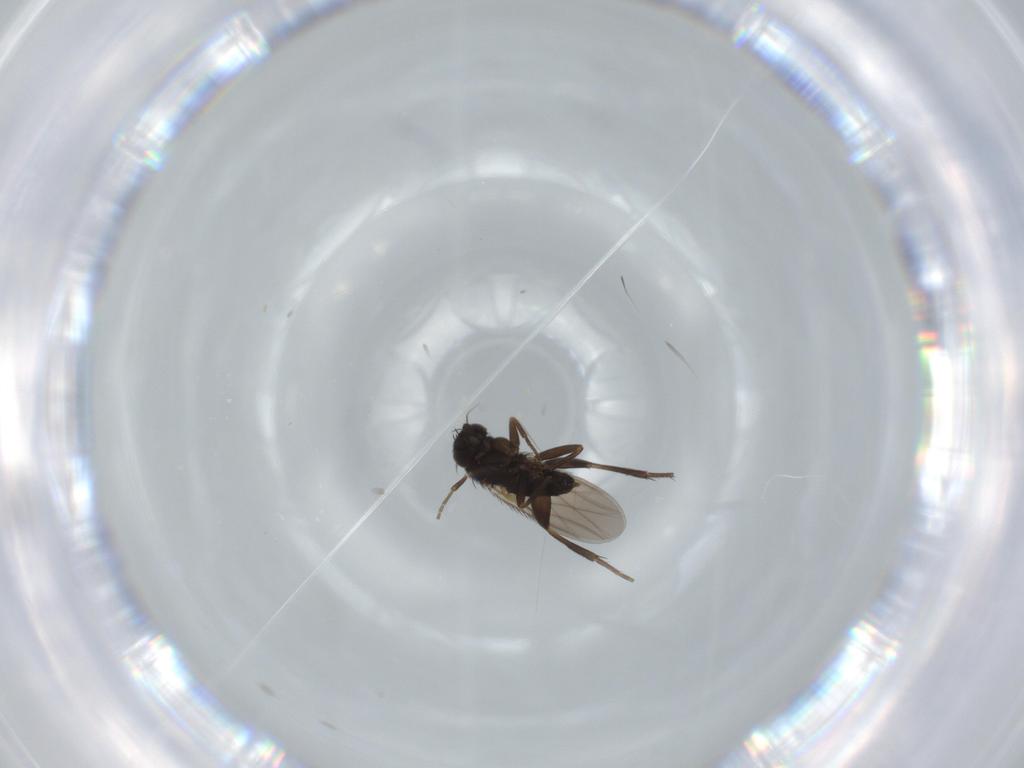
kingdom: Animalia
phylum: Arthropoda
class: Insecta
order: Diptera
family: Phoridae
